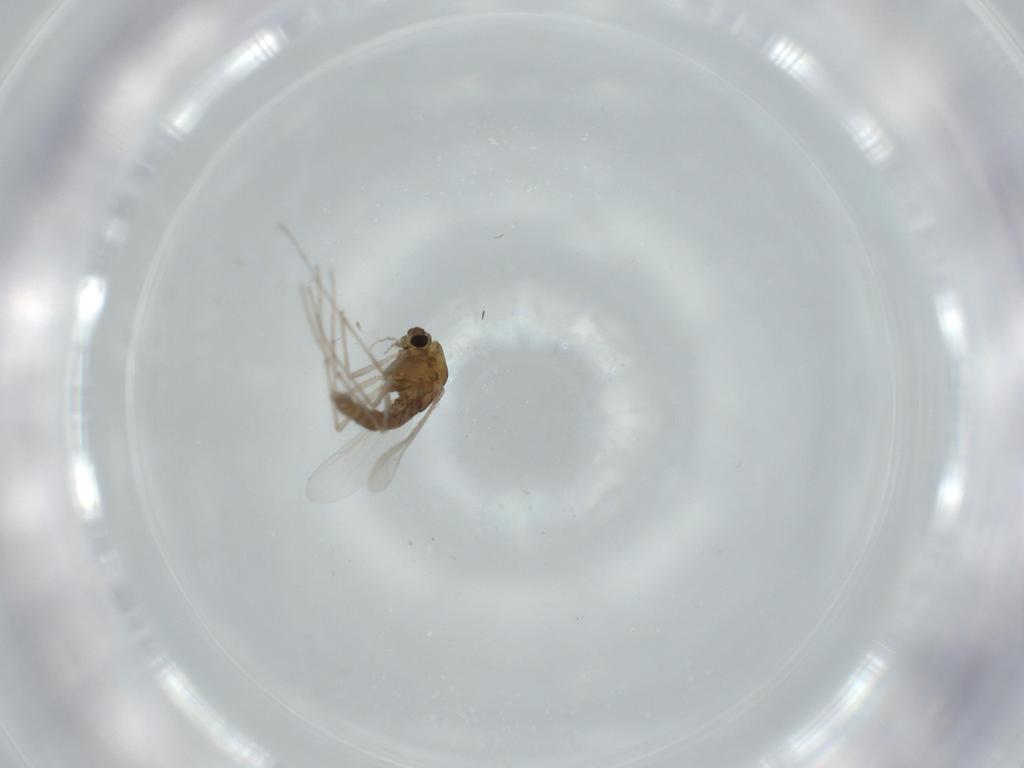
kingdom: Animalia
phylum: Arthropoda
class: Insecta
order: Diptera
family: Chironomidae
